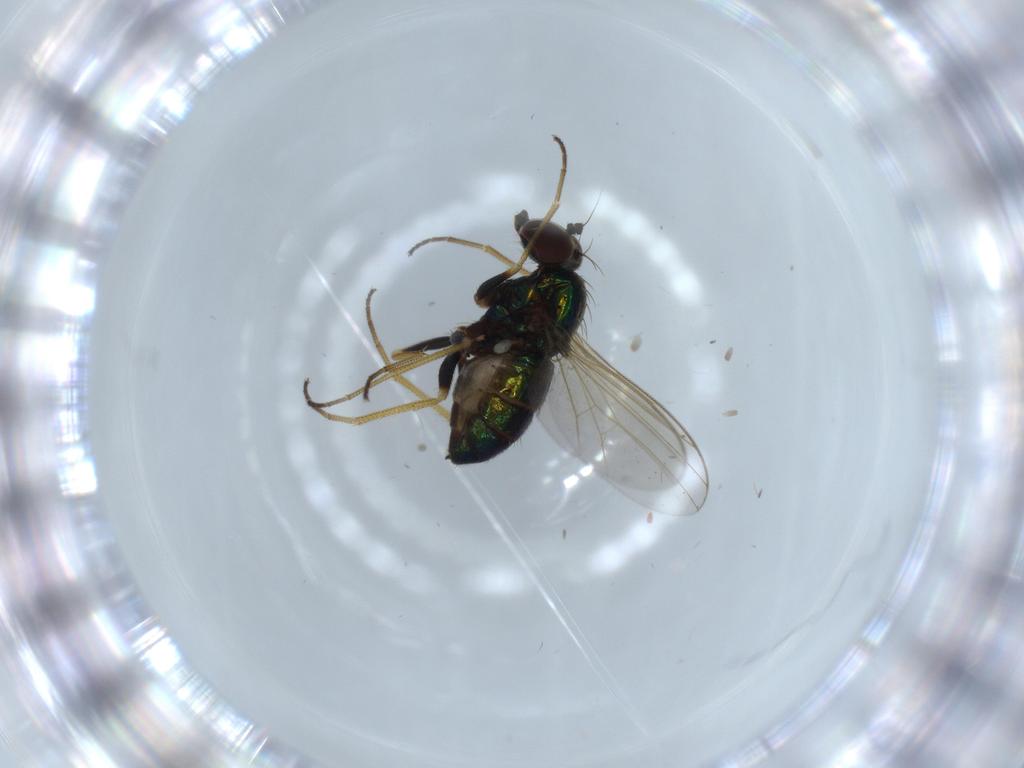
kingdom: Animalia
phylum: Arthropoda
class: Insecta
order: Diptera
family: Dolichopodidae
